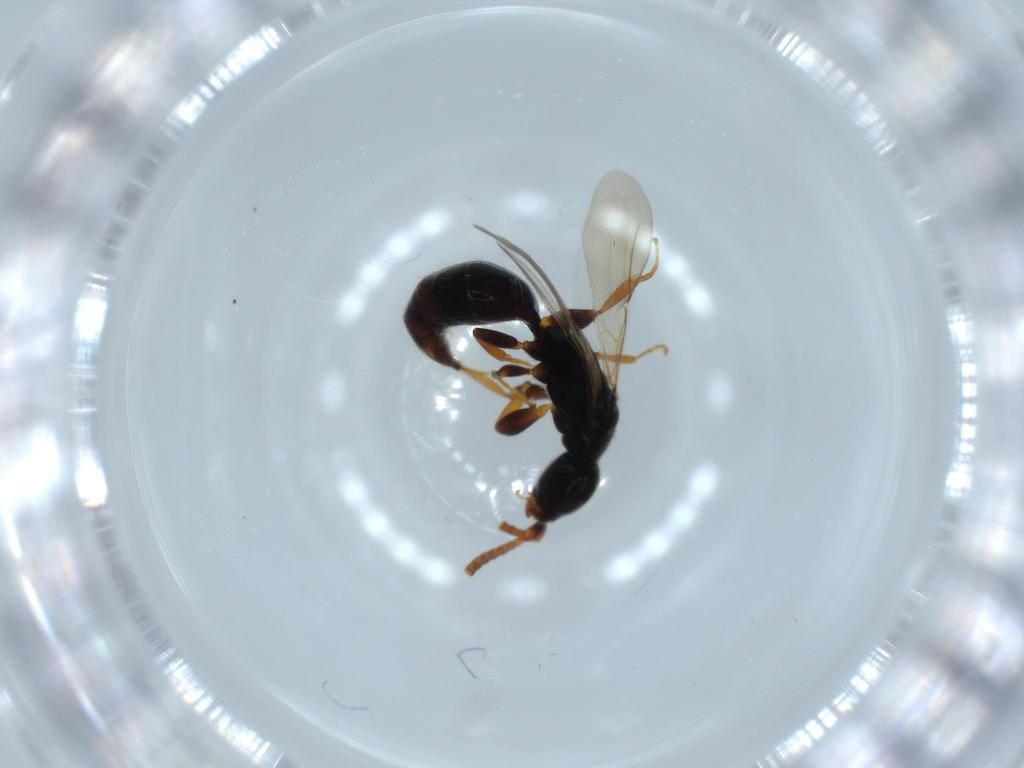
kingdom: Animalia
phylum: Arthropoda
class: Insecta
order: Hymenoptera
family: Bethylidae
